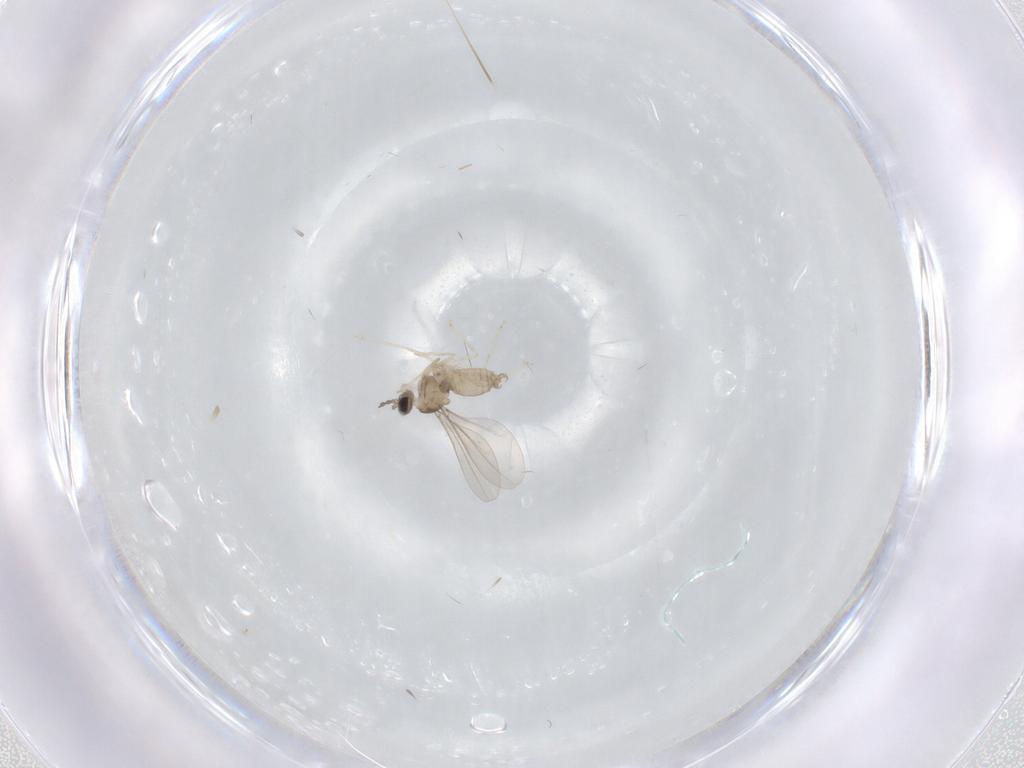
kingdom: Animalia
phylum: Arthropoda
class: Insecta
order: Diptera
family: Cecidomyiidae
